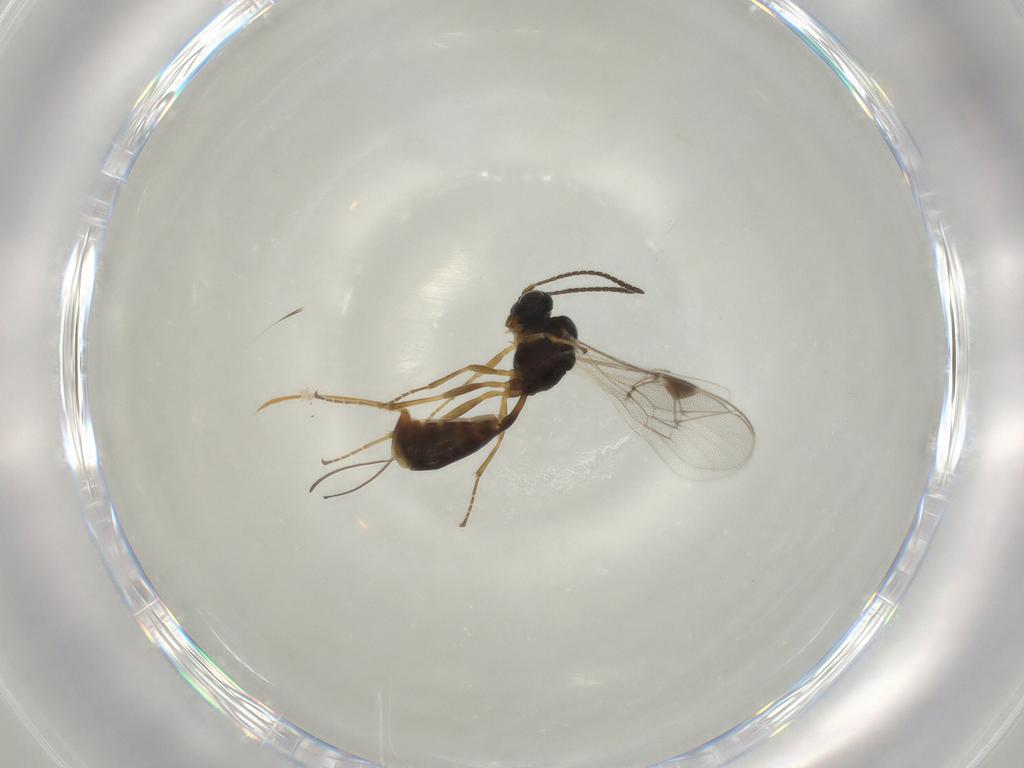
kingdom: Animalia
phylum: Arthropoda
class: Insecta
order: Hymenoptera
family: Ichneumonidae
